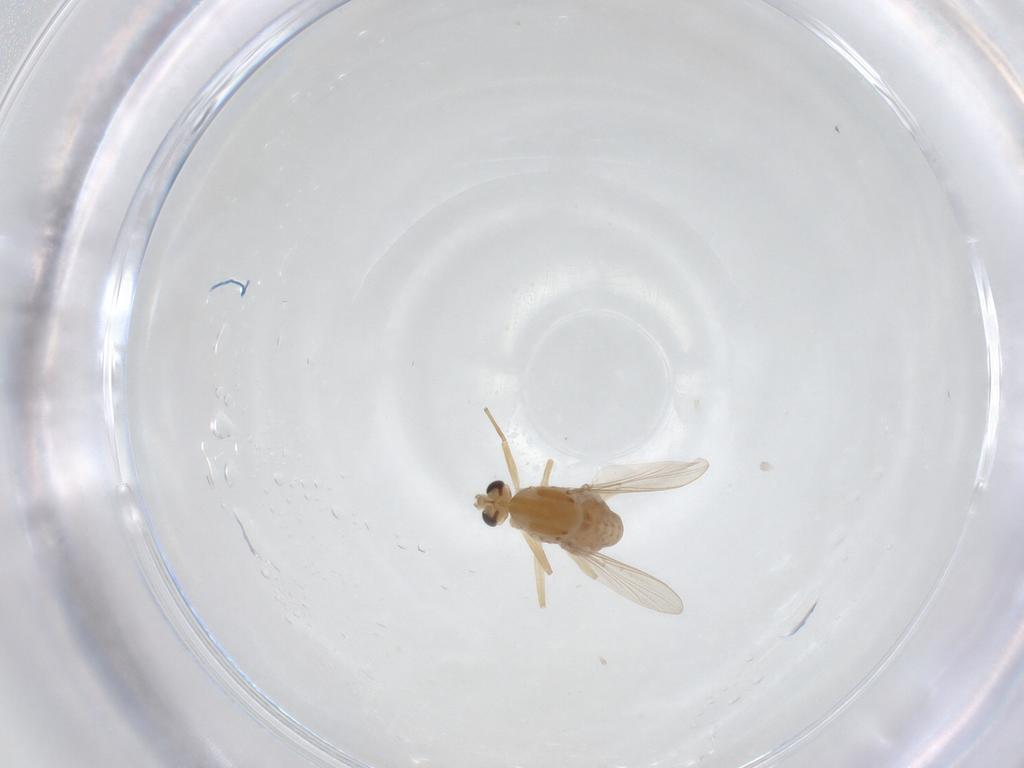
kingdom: Animalia
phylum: Arthropoda
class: Insecta
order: Diptera
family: Chironomidae
